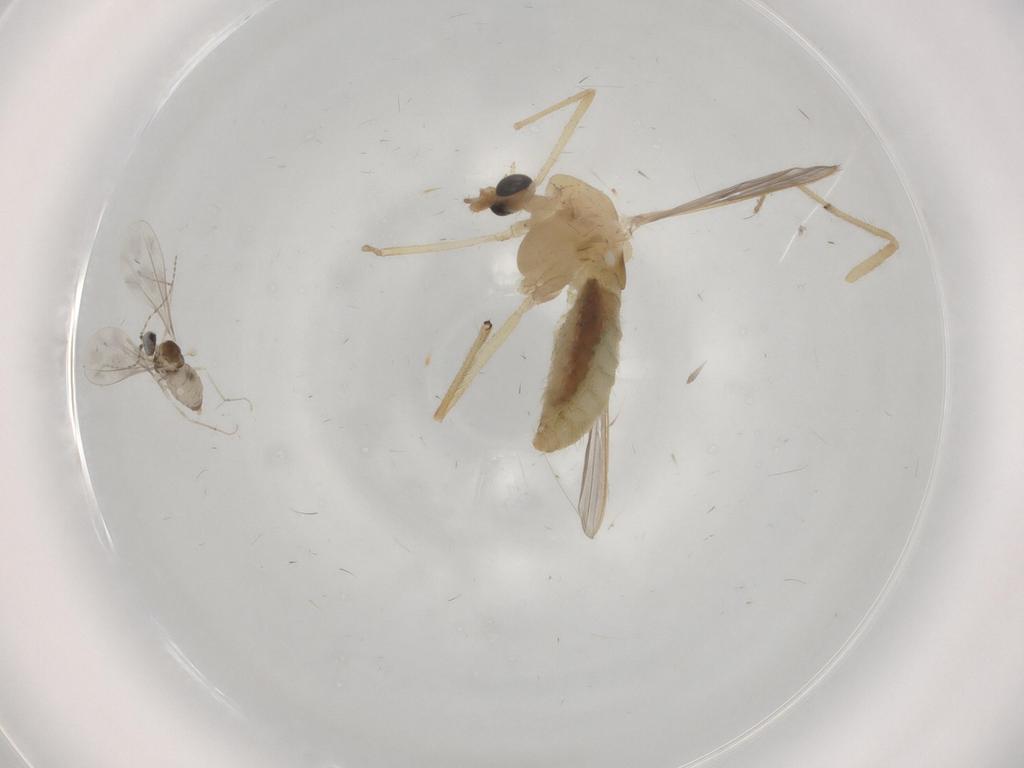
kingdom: Animalia
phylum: Arthropoda
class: Insecta
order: Diptera
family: Chironomidae
